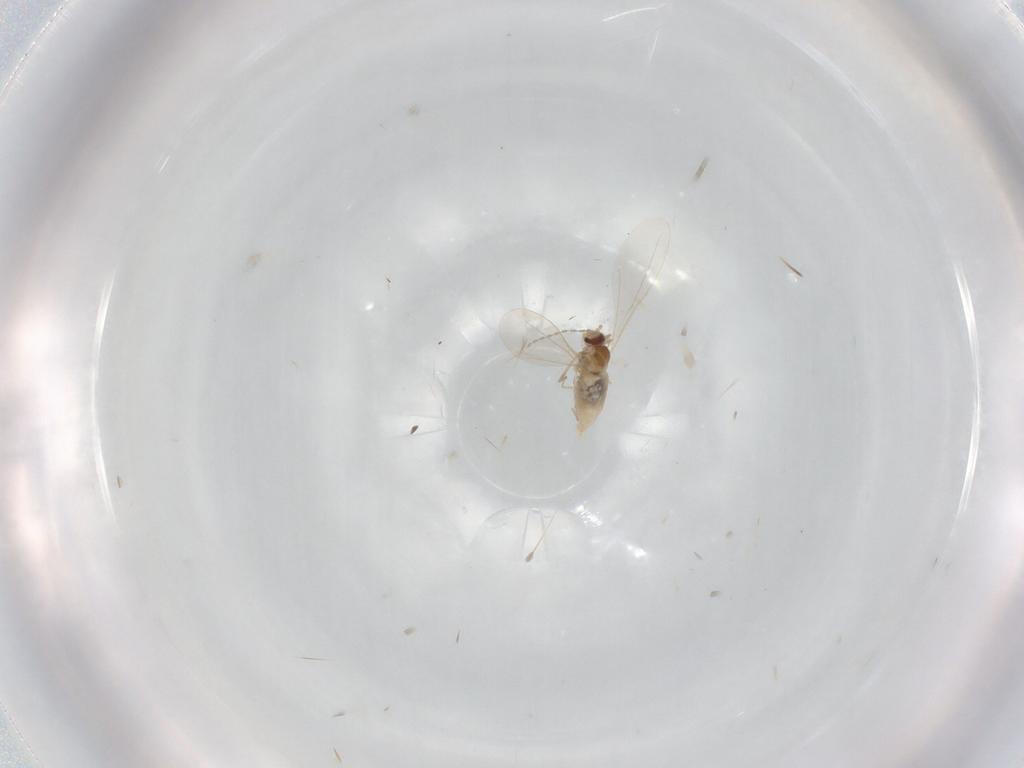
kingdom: Animalia
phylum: Arthropoda
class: Insecta
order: Diptera
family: Cecidomyiidae
